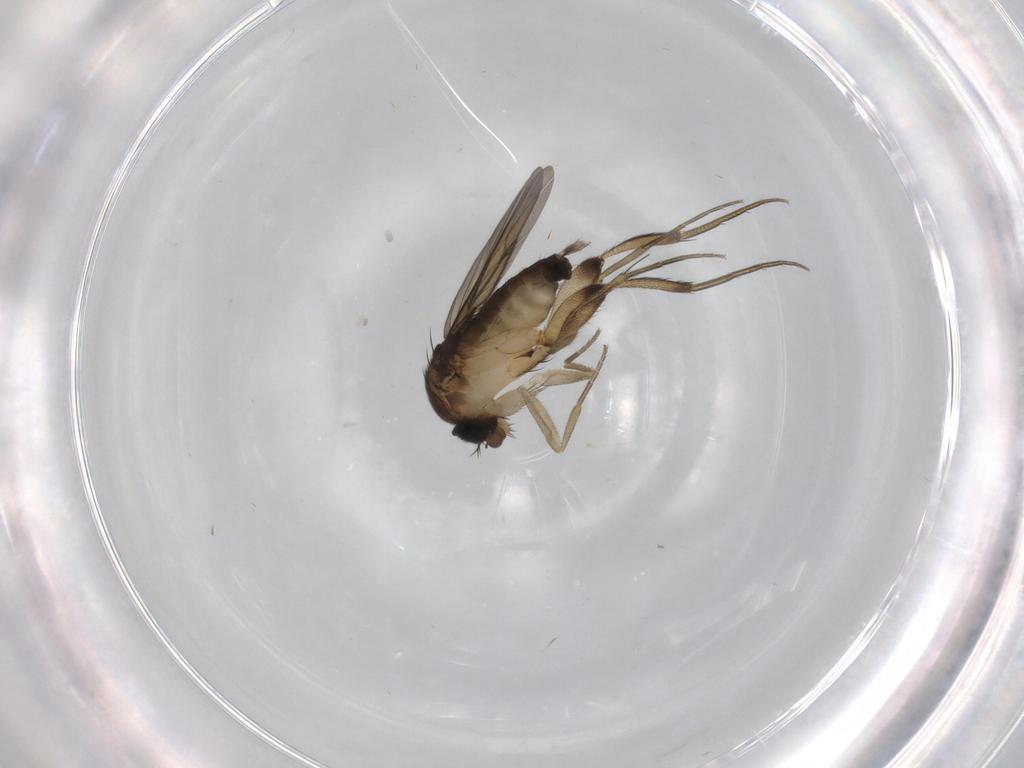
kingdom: Animalia
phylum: Arthropoda
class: Insecta
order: Diptera
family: Phoridae
